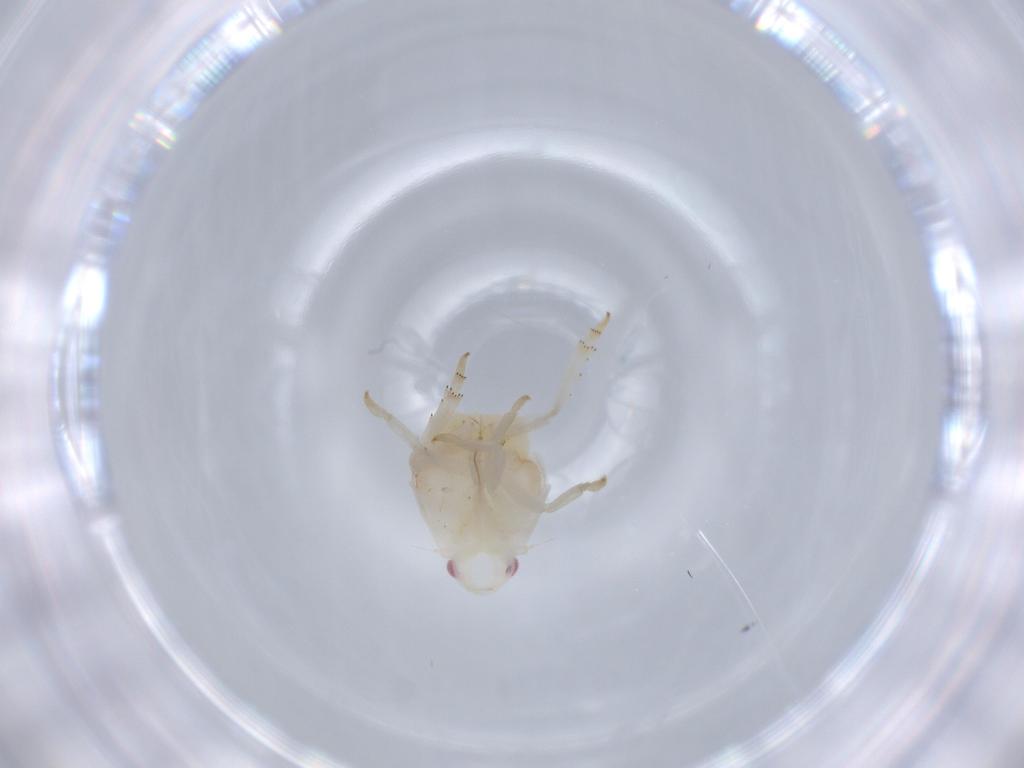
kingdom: Animalia
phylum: Arthropoda
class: Insecta
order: Hemiptera
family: Flatidae
